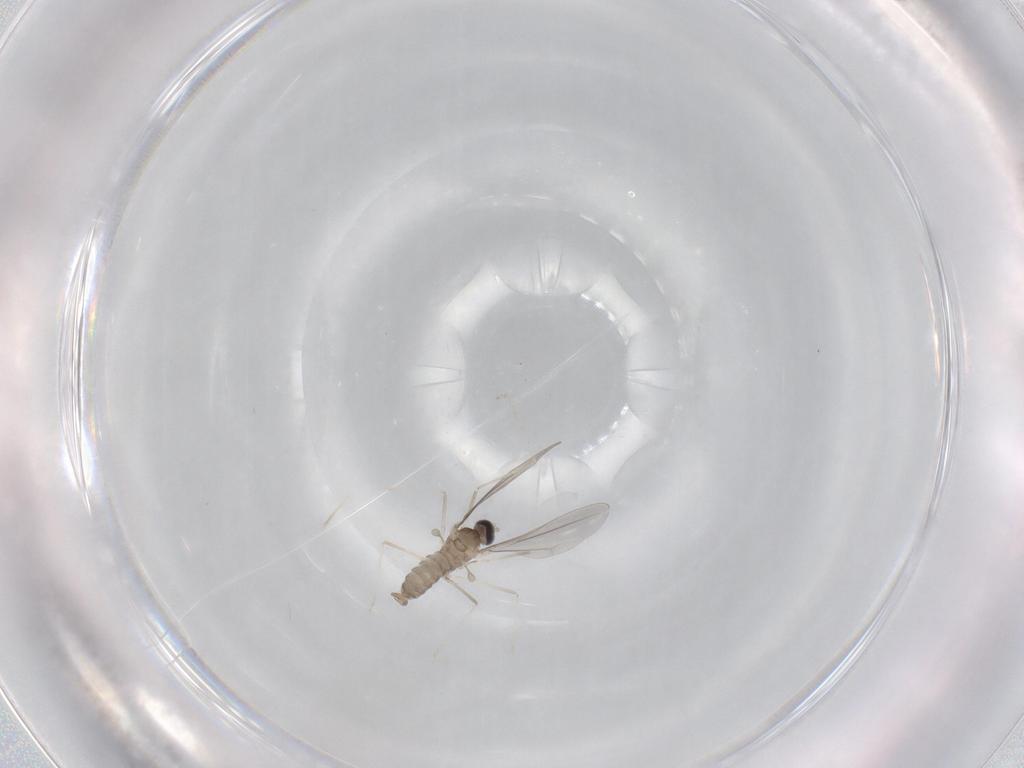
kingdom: Animalia
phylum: Arthropoda
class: Insecta
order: Diptera
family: Cecidomyiidae
